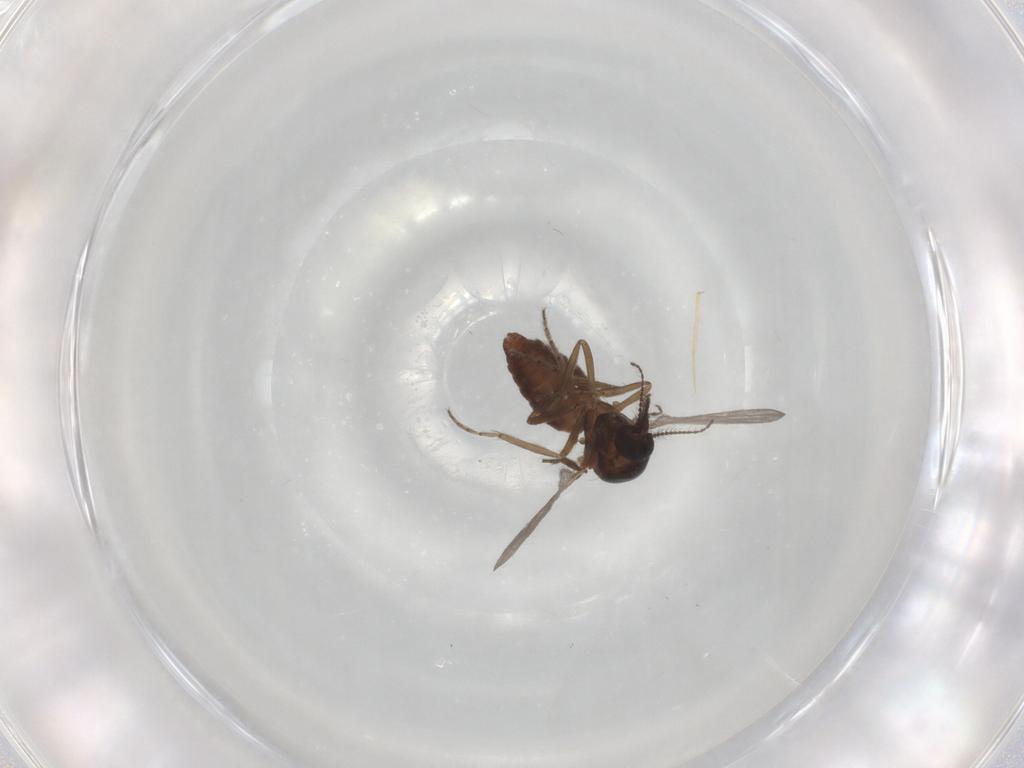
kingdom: Animalia
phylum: Arthropoda
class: Insecta
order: Diptera
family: Ceratopogonidae
